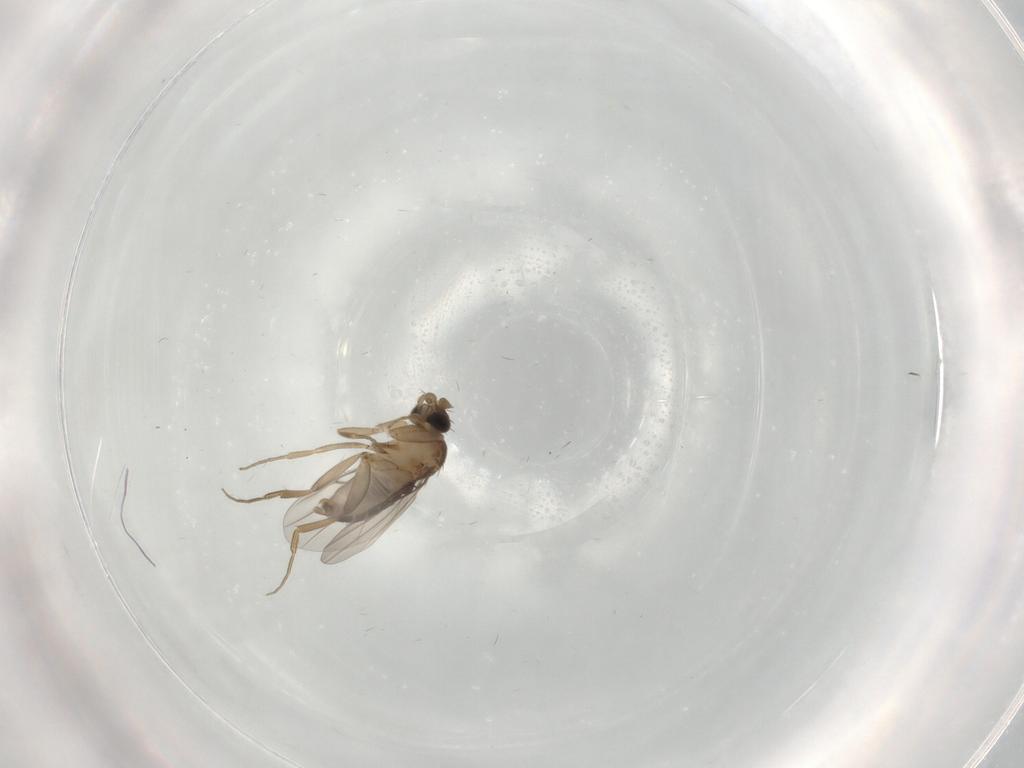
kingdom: Animalia
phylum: Arthropoda
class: Insecta
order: Diptera
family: Phoridae
